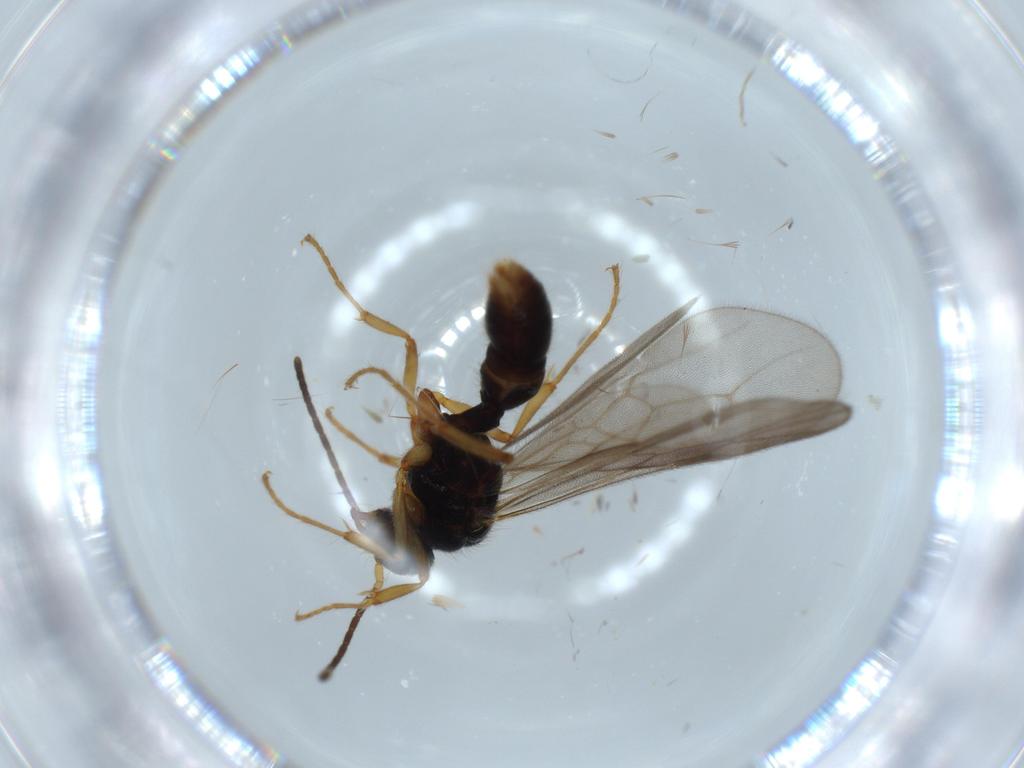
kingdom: Animalia
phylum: Arthropoda
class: Insecta
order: Hymenoptera
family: Formicidae
